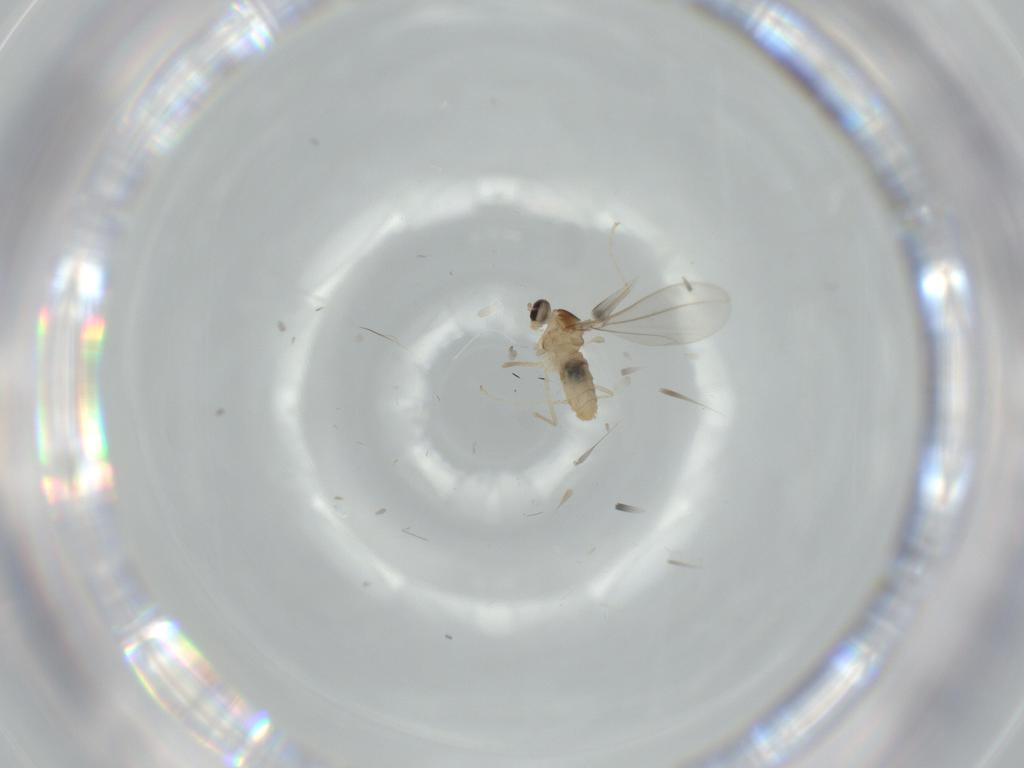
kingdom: Animalia
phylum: Arthropoda
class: Insecta
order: Diptera
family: Cecidomyiidae
